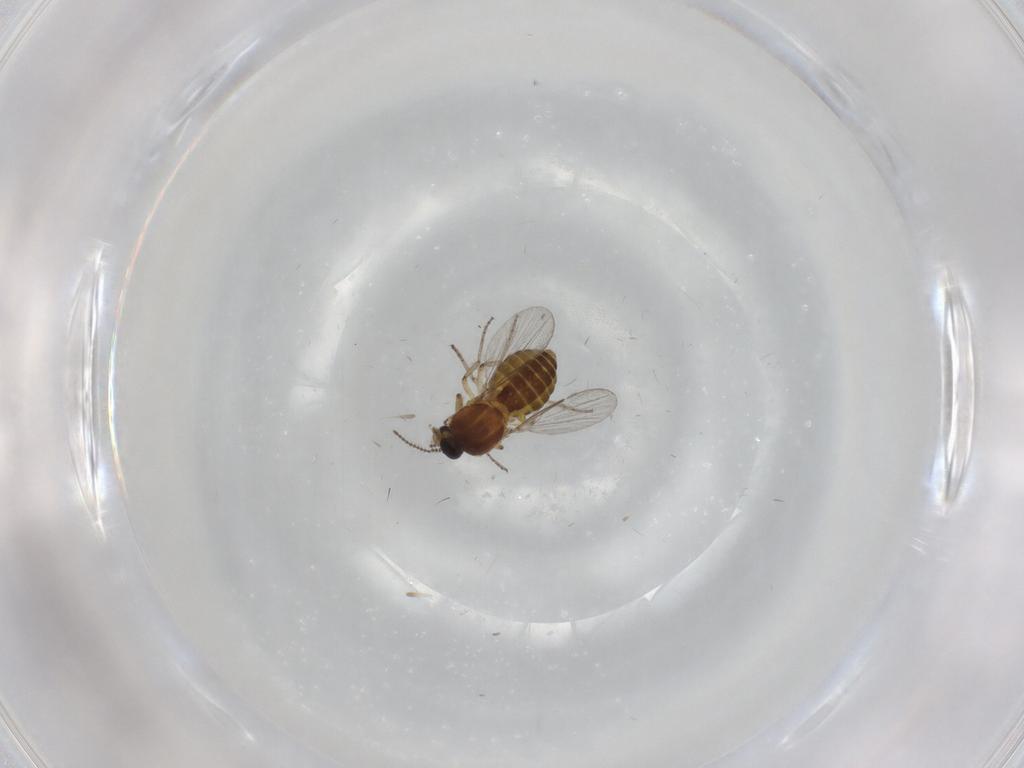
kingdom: Animalia
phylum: Arthropoda
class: Insecta
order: Diptera
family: Ceratopogonidae
